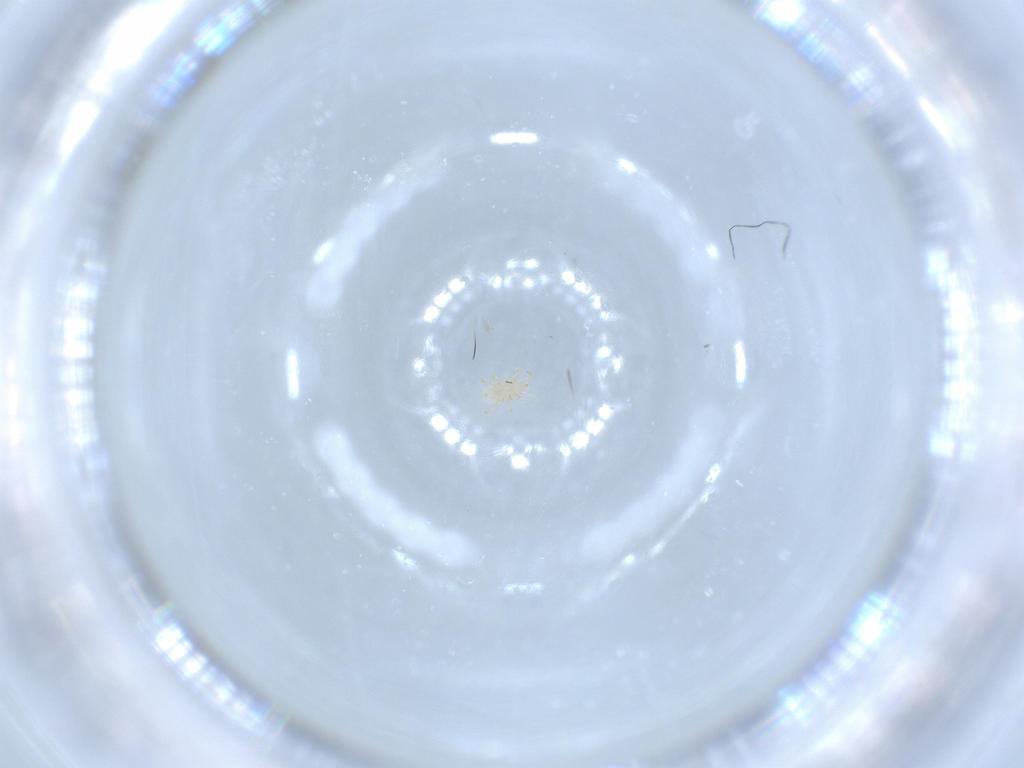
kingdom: Animalia
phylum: Arthropoda
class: Arachnida
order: Mesostigmata
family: Melicharidae
